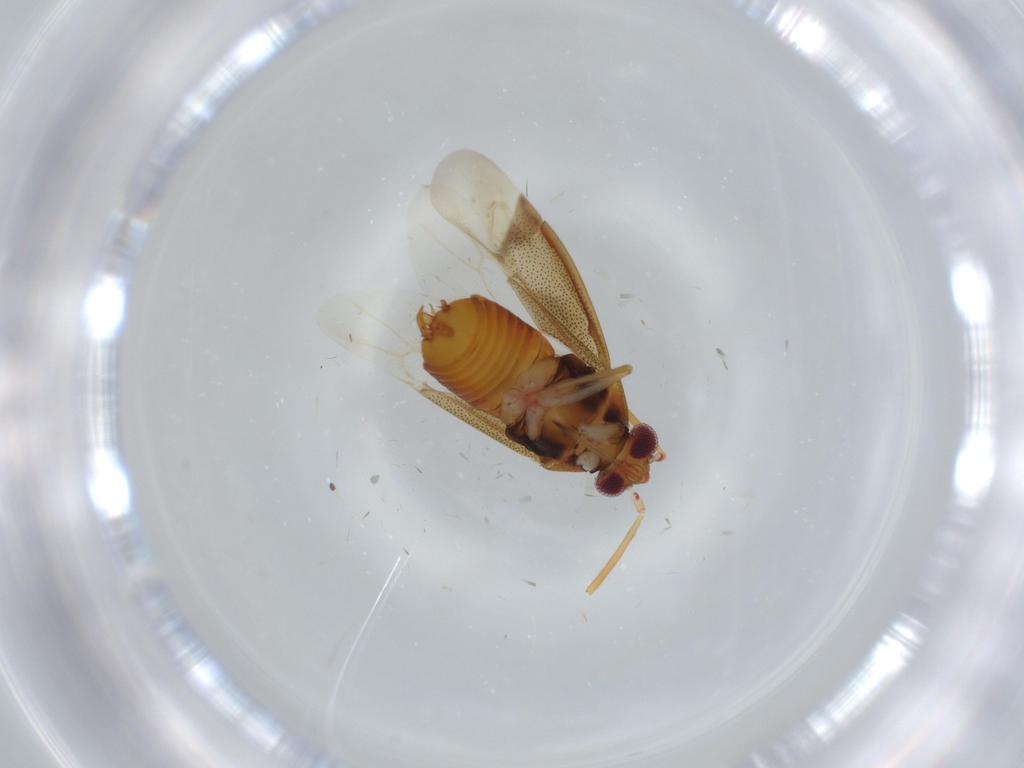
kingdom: Animalia
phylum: Arthropoda
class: Insecta
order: Hemiptera
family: Miridae
